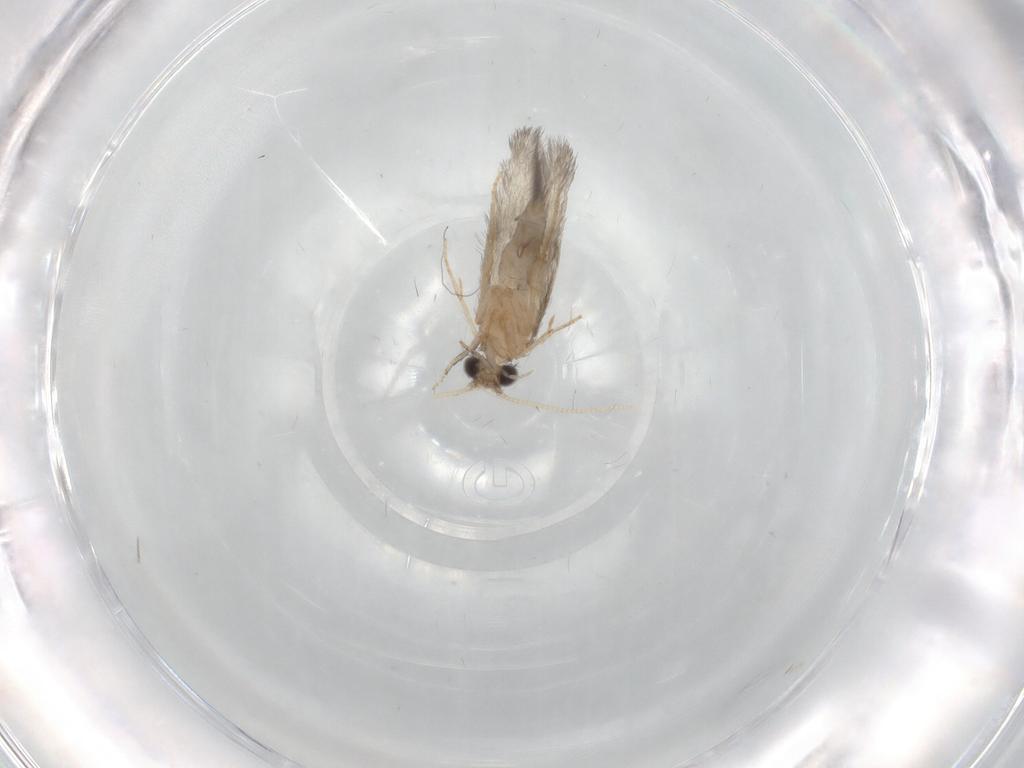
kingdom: Animalia
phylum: Arthropoda
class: Insecta
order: Trichoptera
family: Hydroptilidae
